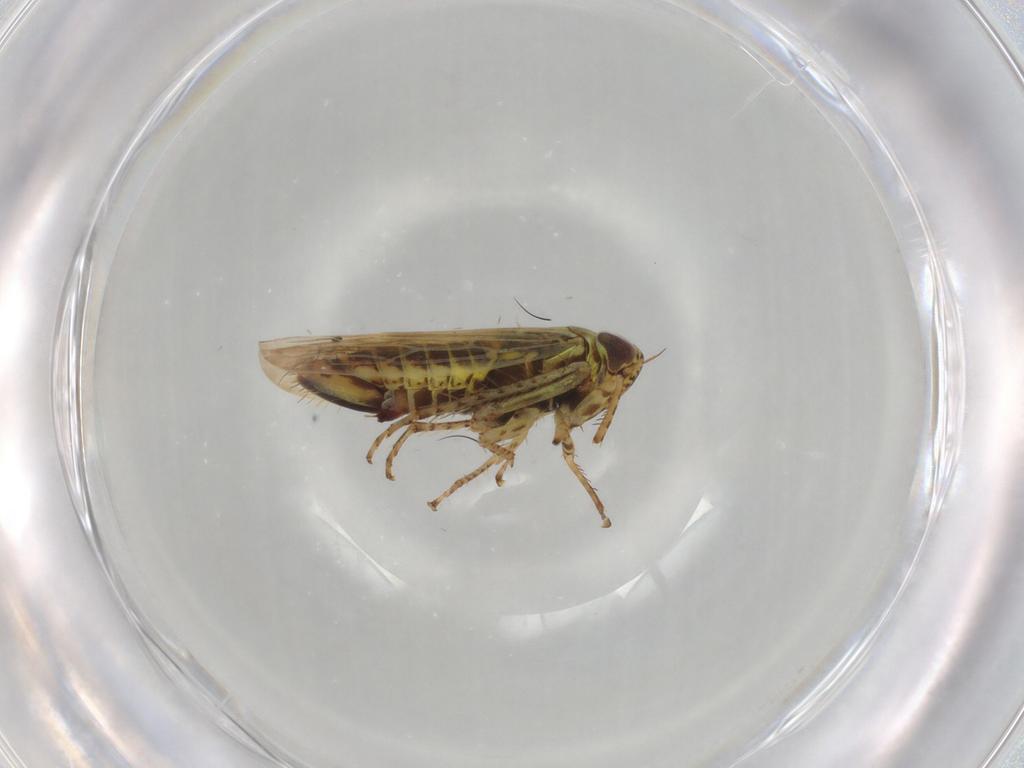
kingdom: Animalia
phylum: Arthropoda
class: Insecta
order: Hemiptera
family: Cicadellidae
